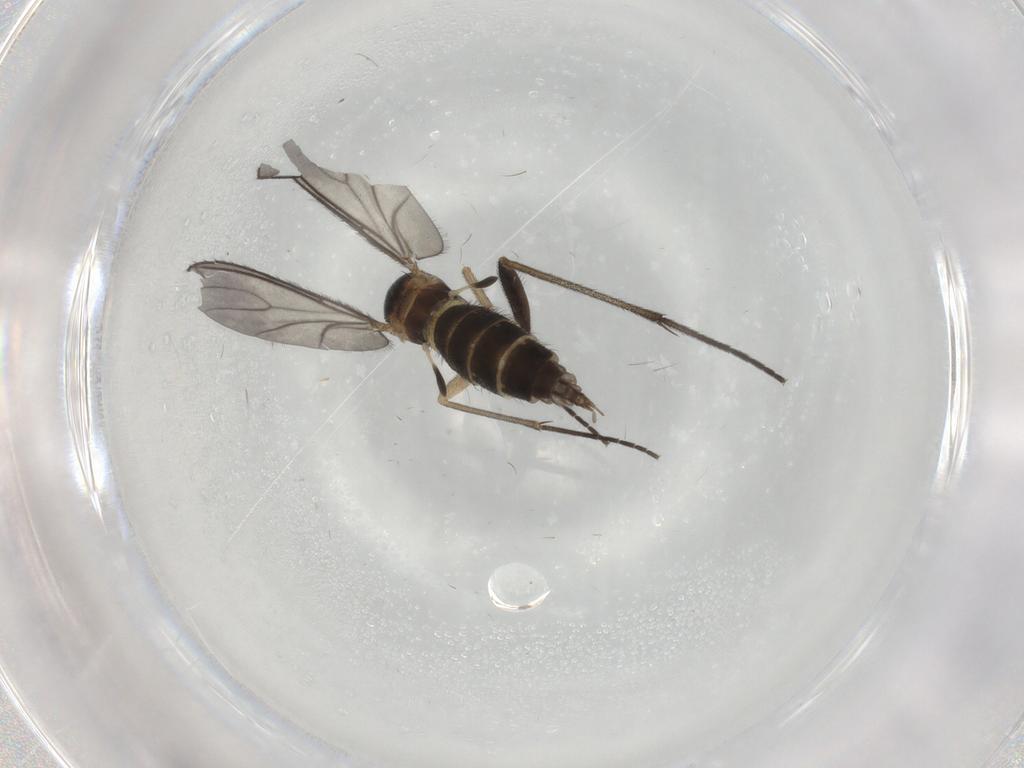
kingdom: Animalia
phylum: Arthropoda
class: Insecta
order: Diptera
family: Sciaridae
